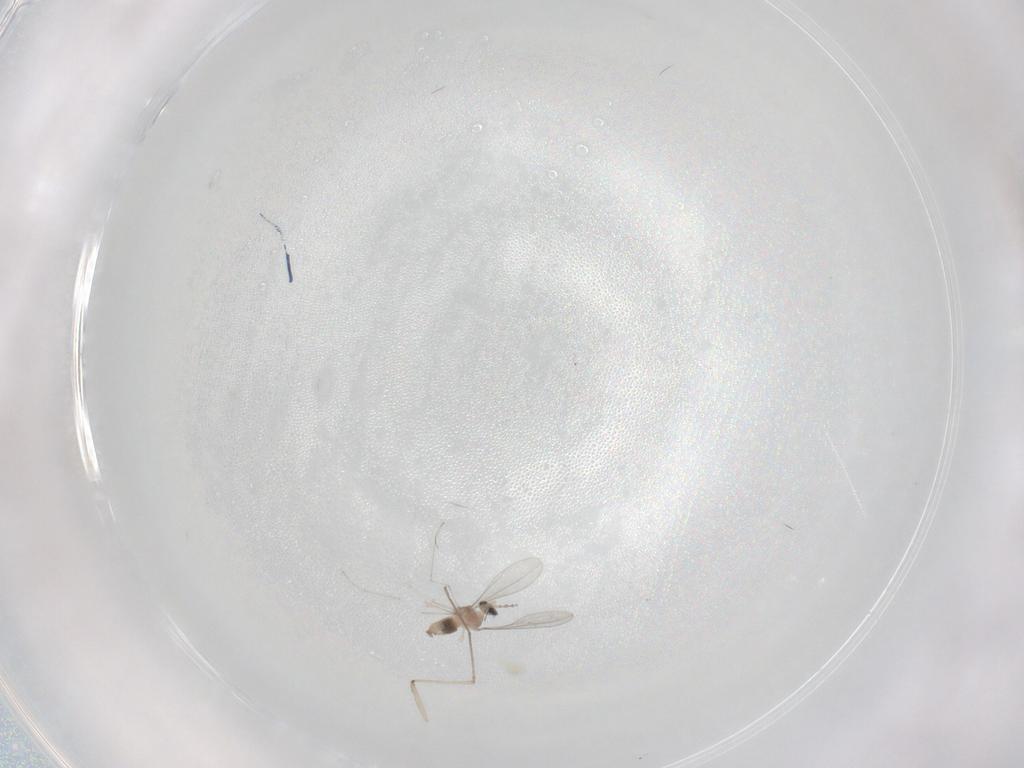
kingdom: Animalia
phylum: Arthropoda
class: Insecta
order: Diptera
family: Cecidomyiidae
